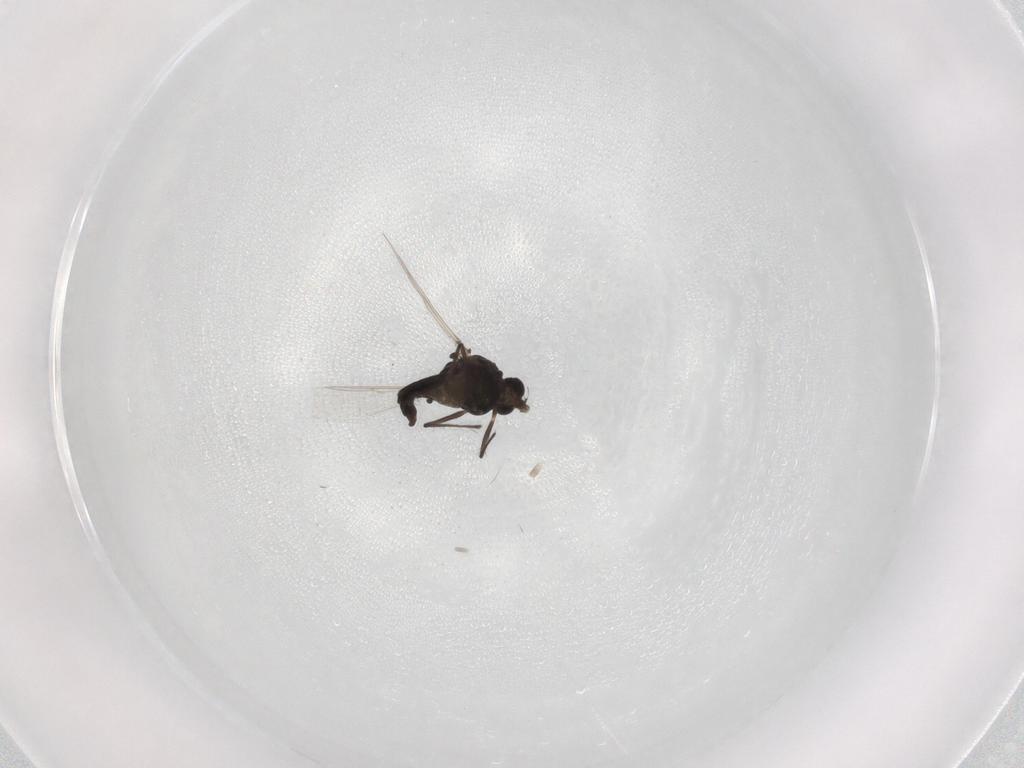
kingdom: Animalia
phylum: Arthropoda
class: Insecta
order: Diptera
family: Chironomidae
